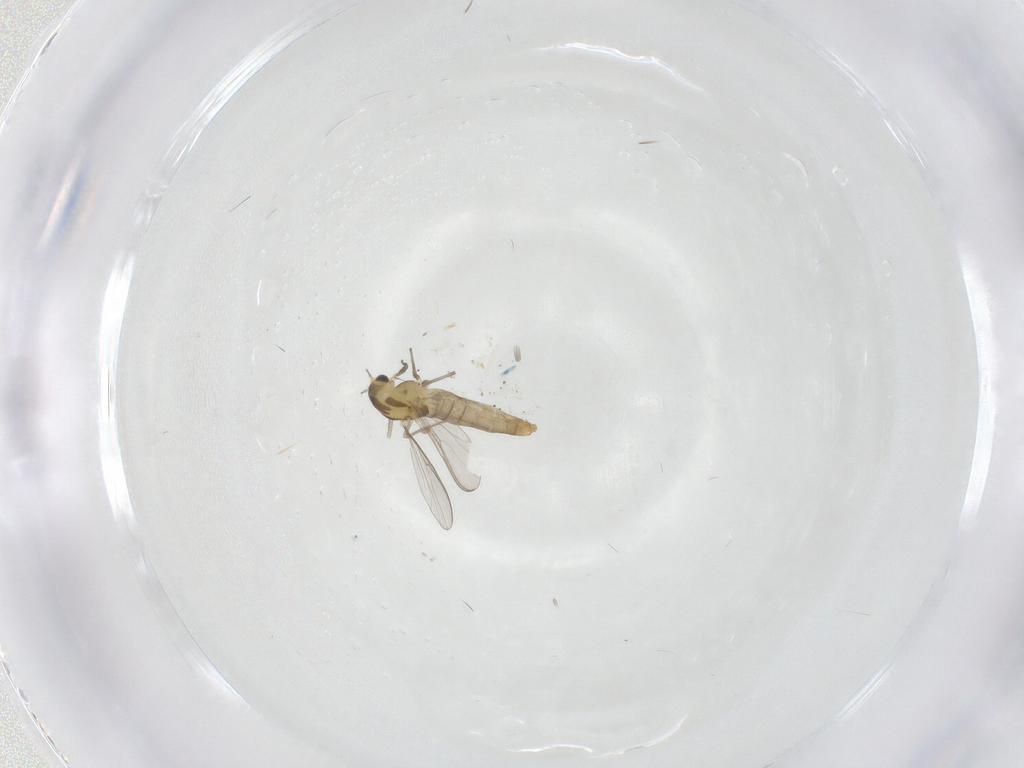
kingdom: Animalia
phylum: Arthropoda
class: Insecta
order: Diptera
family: Chironomidae
